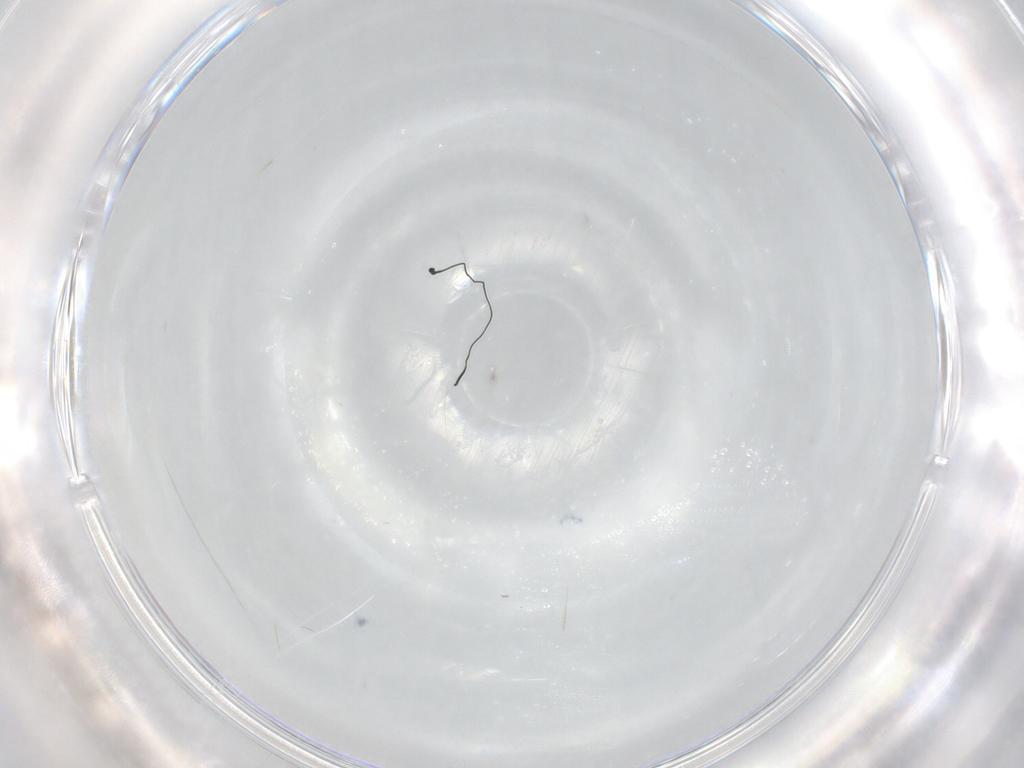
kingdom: Animalia
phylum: Arthropoda
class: Insecta
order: Diptera
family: Chironomidae
